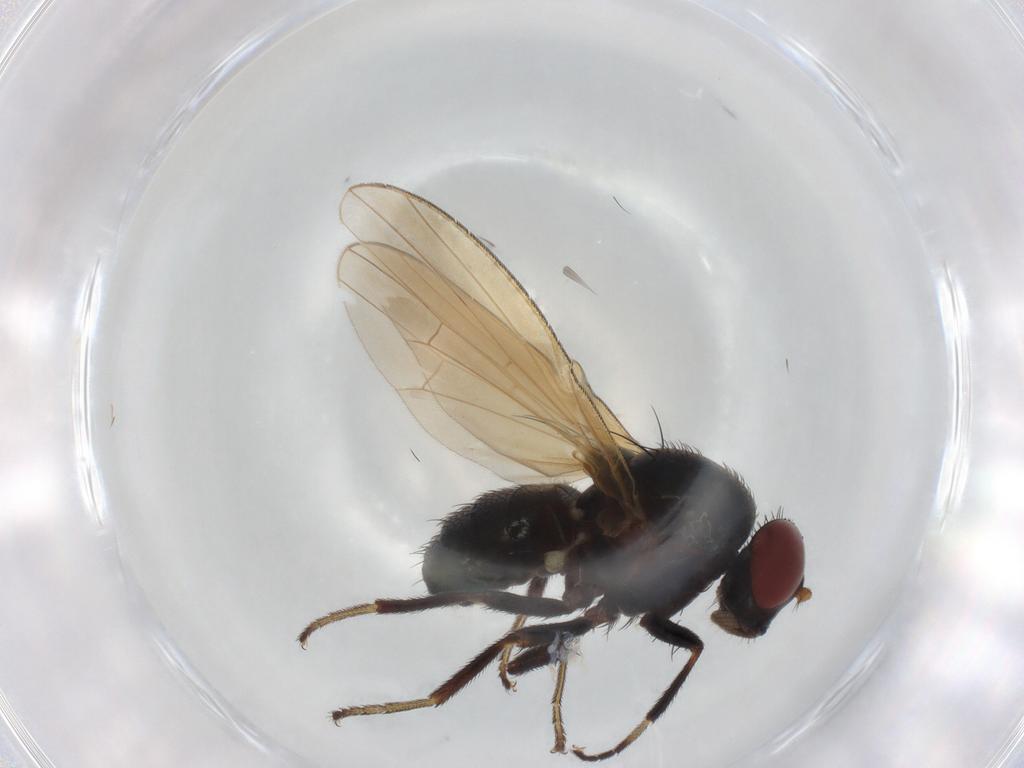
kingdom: Animalia
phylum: Arthropoda
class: Insecta
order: Diptera
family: Lauxaniidae
